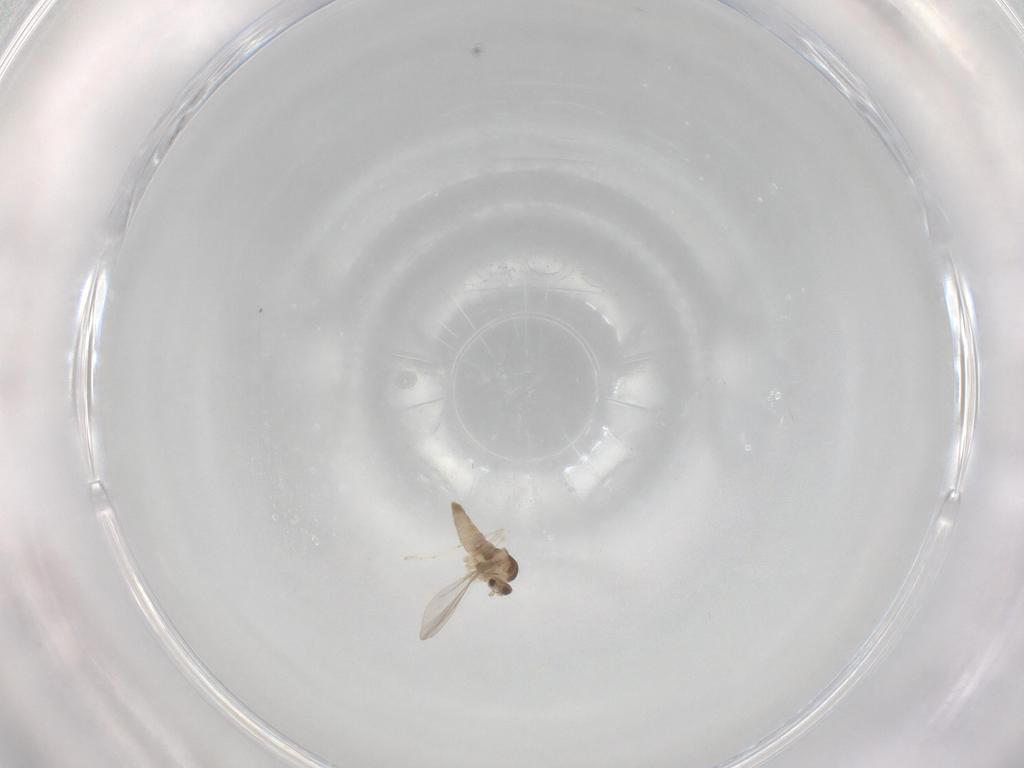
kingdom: Animalia
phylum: Arthropoda
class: Insecta
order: Diptera
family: Cecidomyiidae
